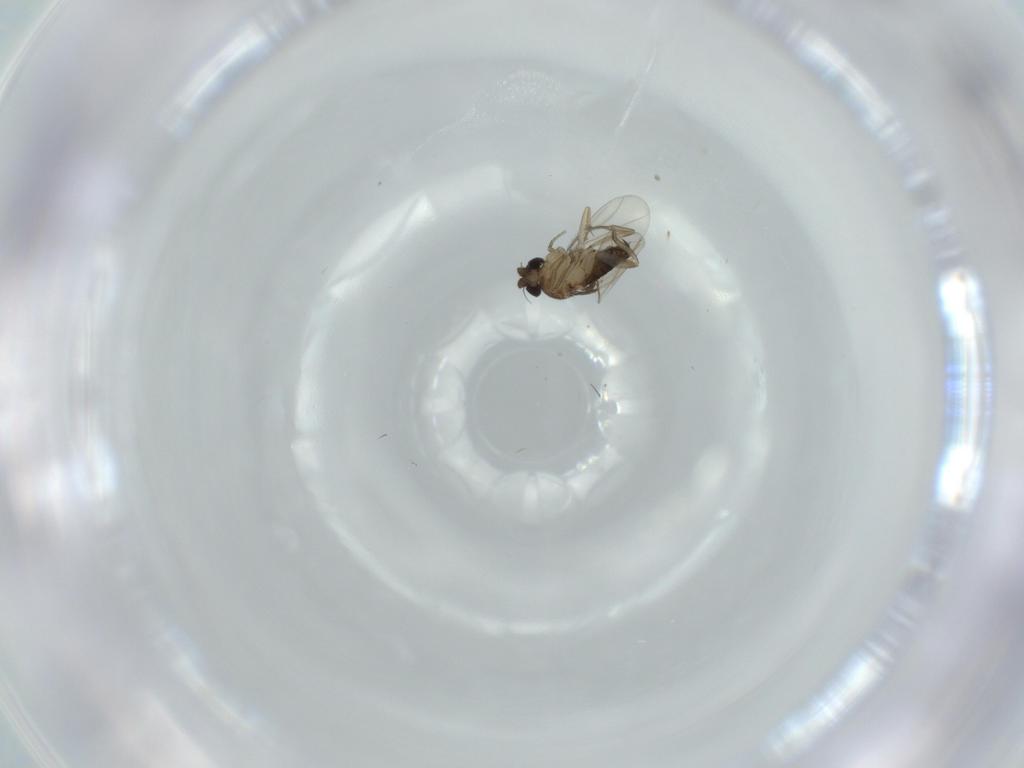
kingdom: Animalia
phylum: Arthropoda
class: Insecta
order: Diptera
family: Phoridae
